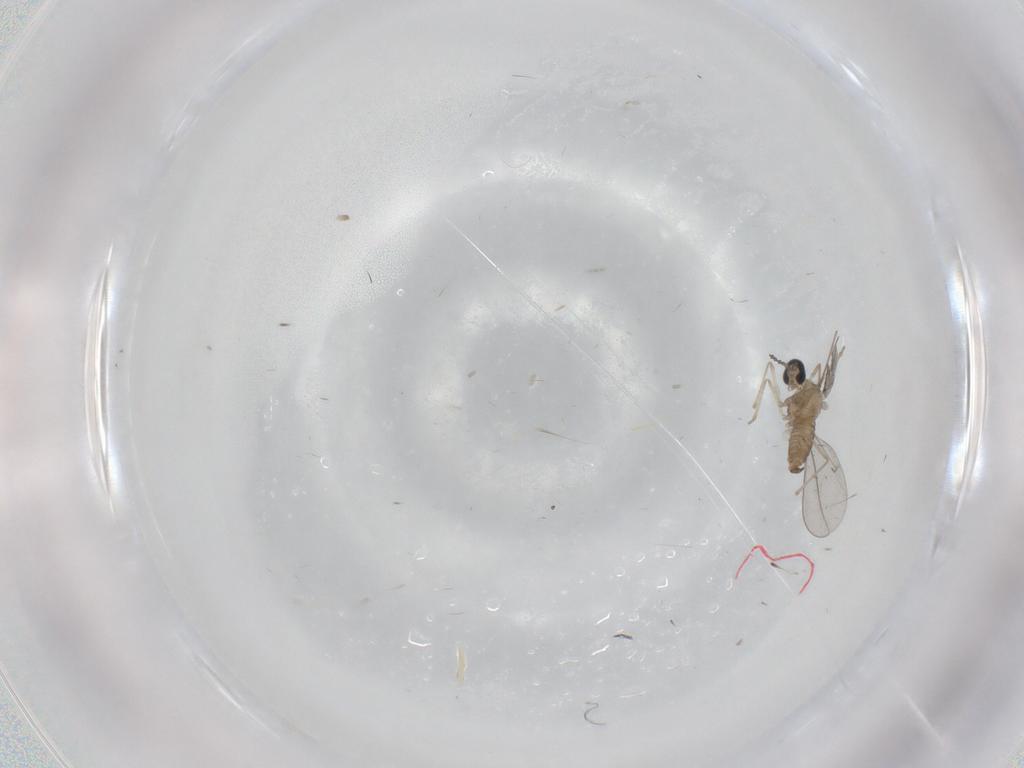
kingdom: Animalia
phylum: Arthropoda
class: Insecta
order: Diptera
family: Cecidomyiidae
